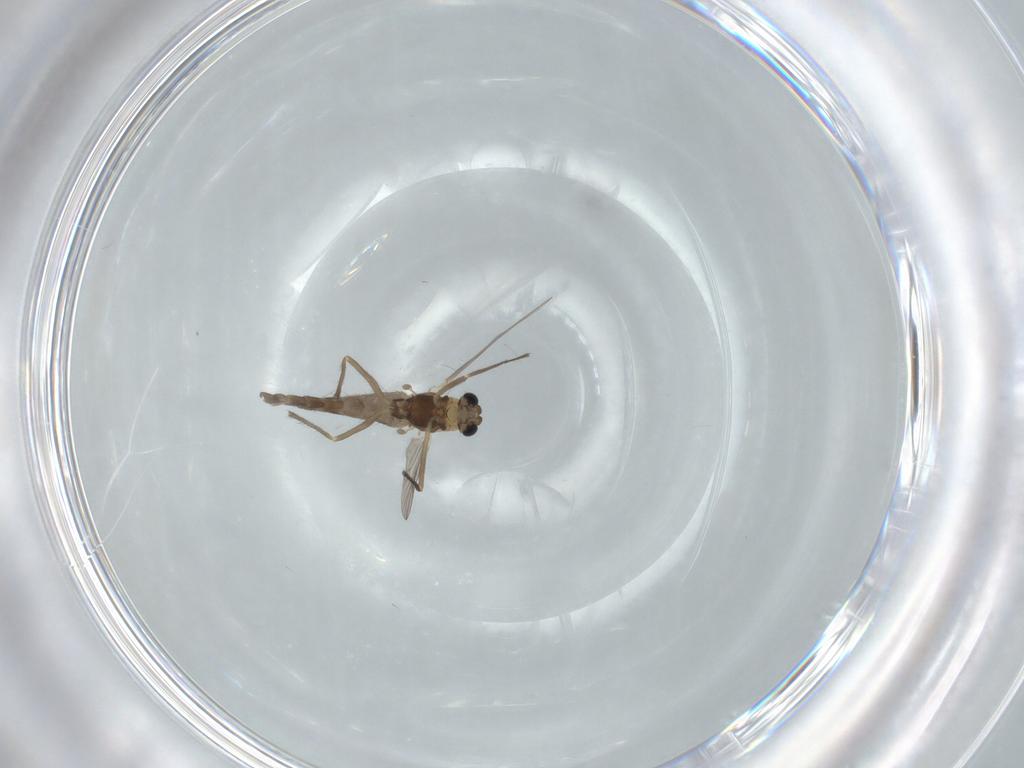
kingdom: Animalia
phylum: Arthropoda
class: Insecta
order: Diptera
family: Chironomidae
